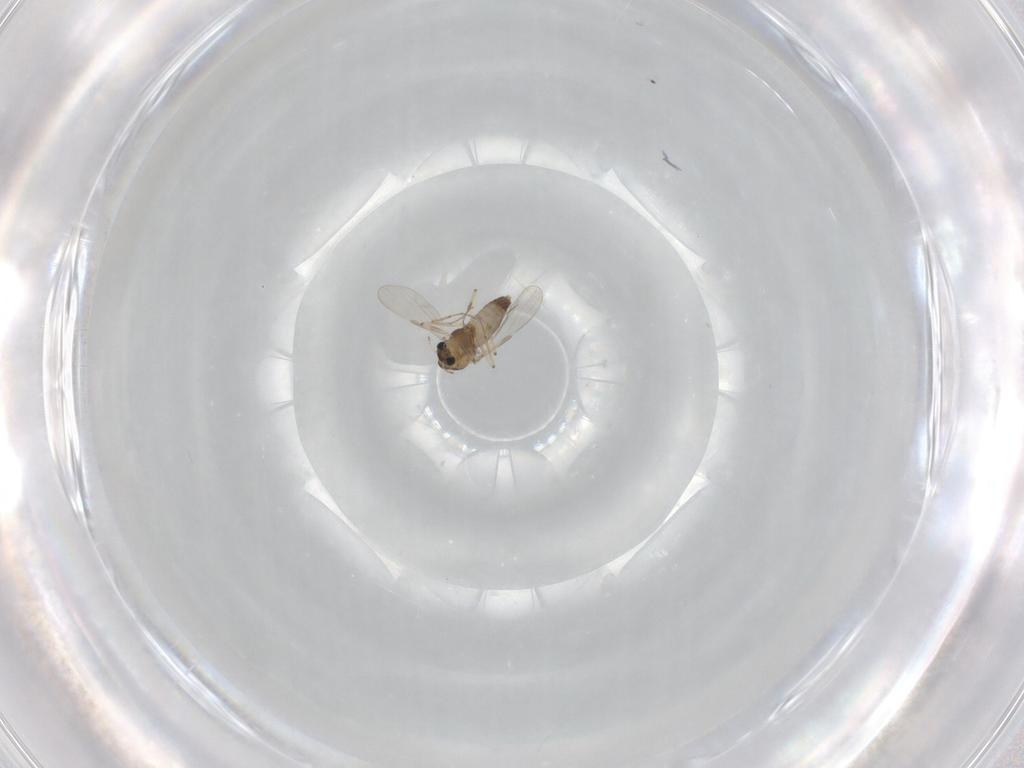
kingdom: Animalia
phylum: Arthropoda
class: Insecta
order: Diptera
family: Chironomidae
